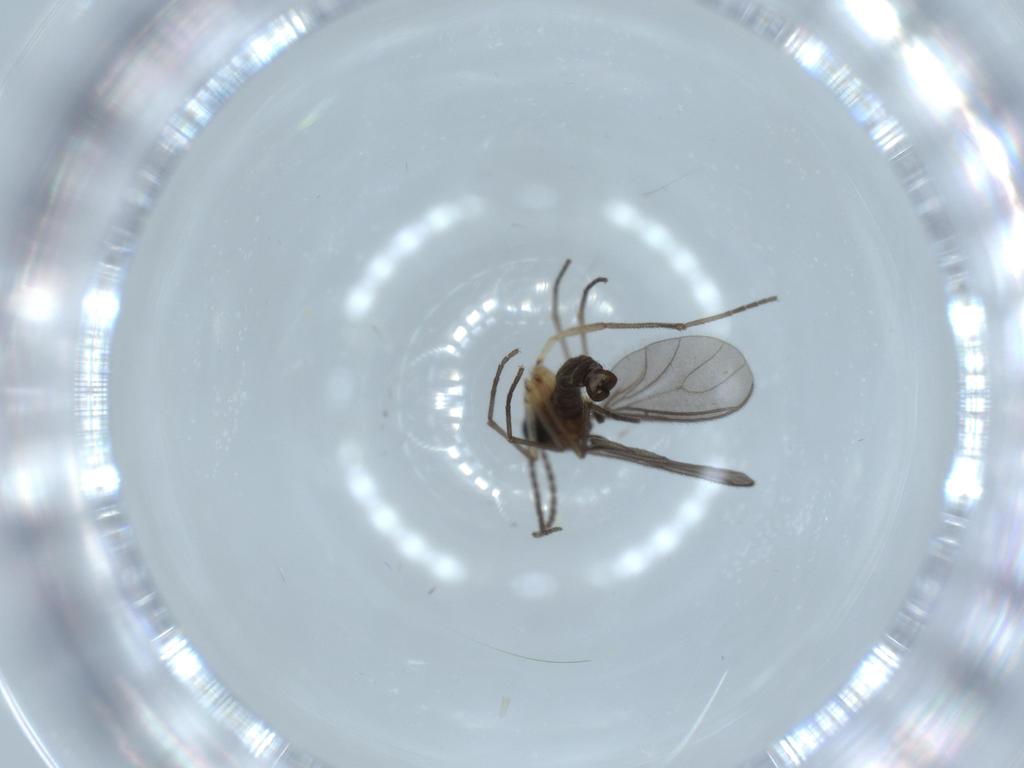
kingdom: Animalia
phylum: Arthropoda
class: Insecta
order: Diptera
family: Sciaridae
